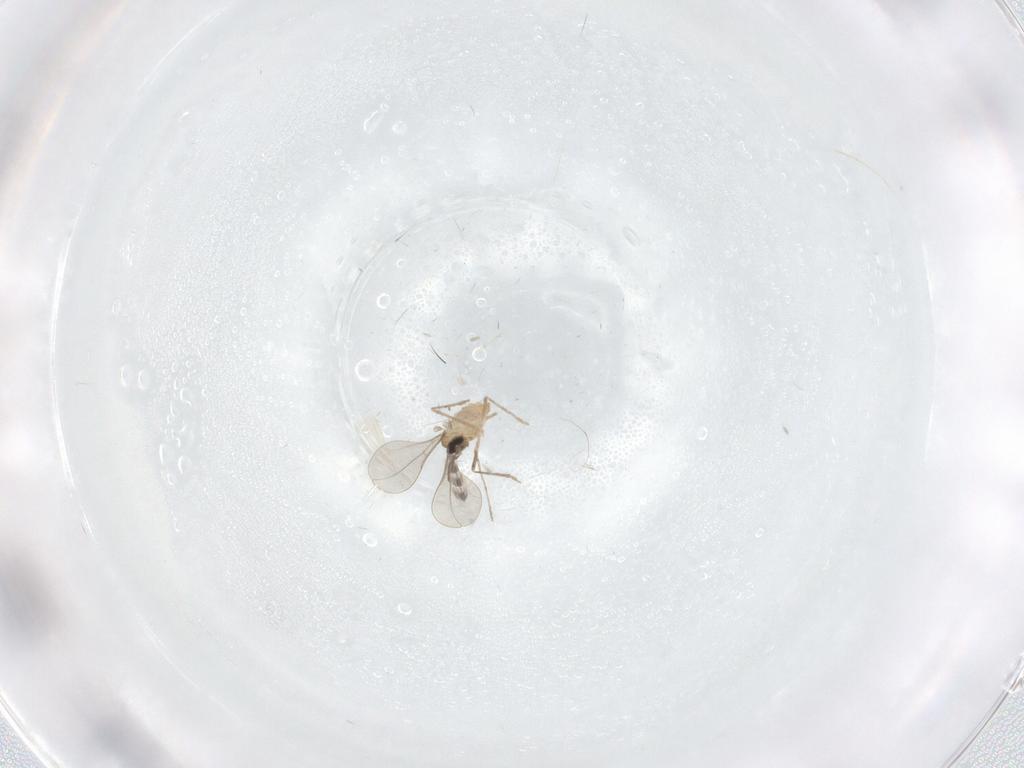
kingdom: Animalia
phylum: Arthropoda
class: Insecta
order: Diptera
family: Cecidomyiidae
